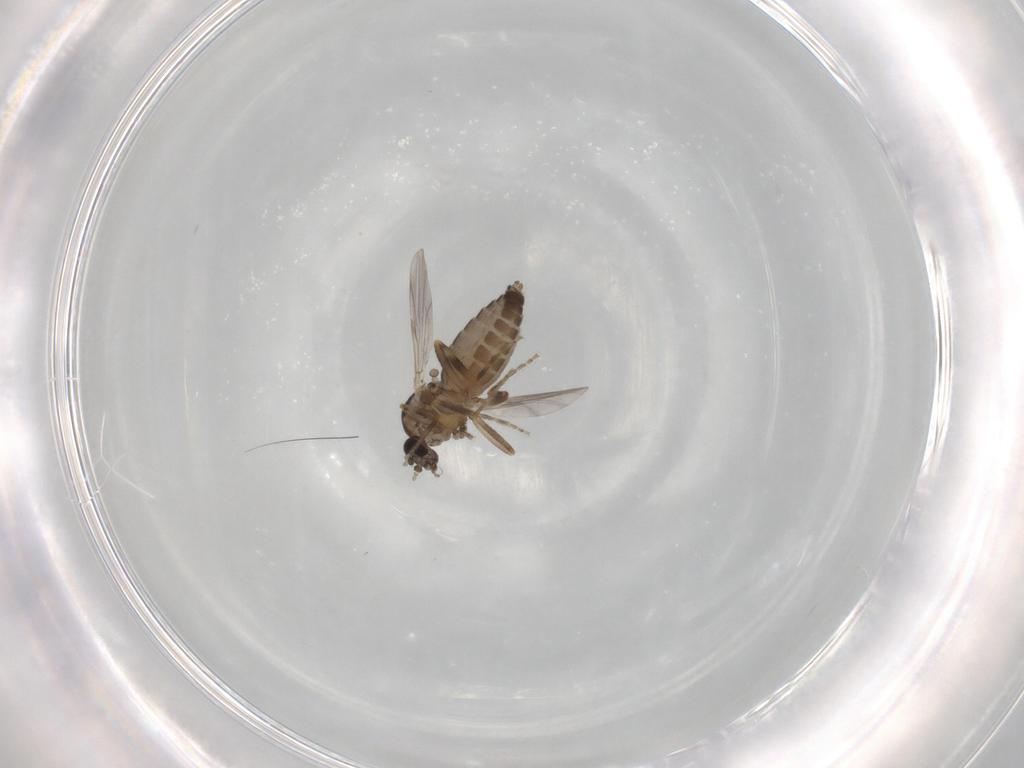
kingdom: Animalia
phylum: Arthropoda
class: Insecta
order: Diptera
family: Ceratopogonidae
